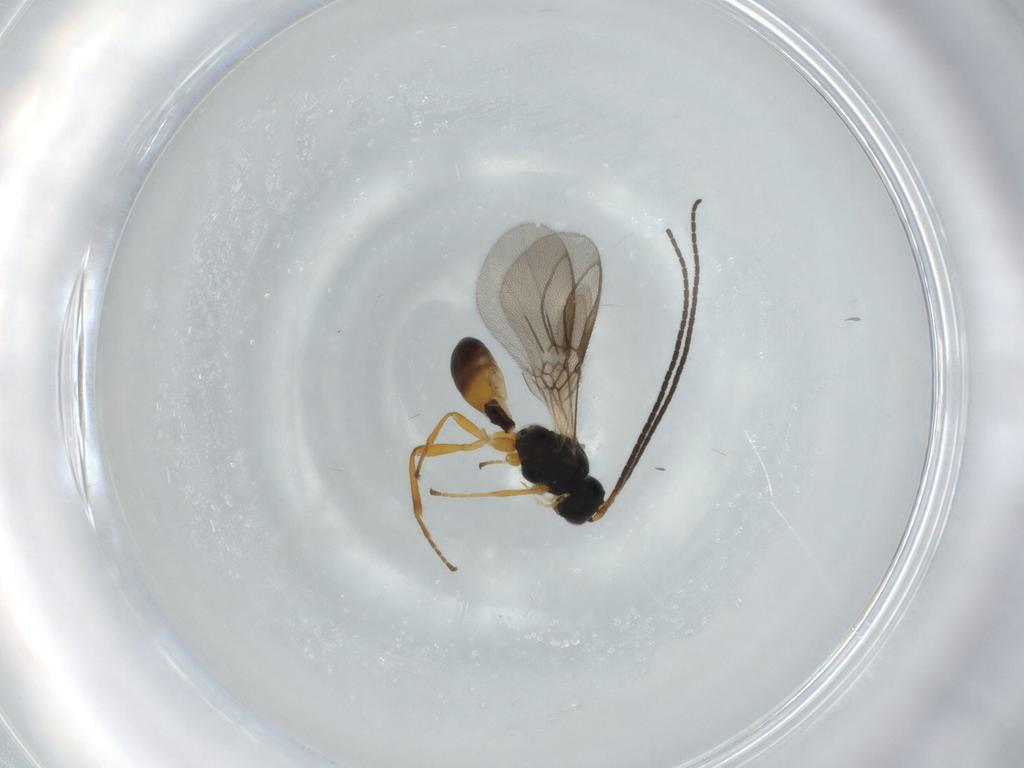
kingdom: Animalia
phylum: Arthropoda
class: Insecta
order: Hymenoptera
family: Braconidae
